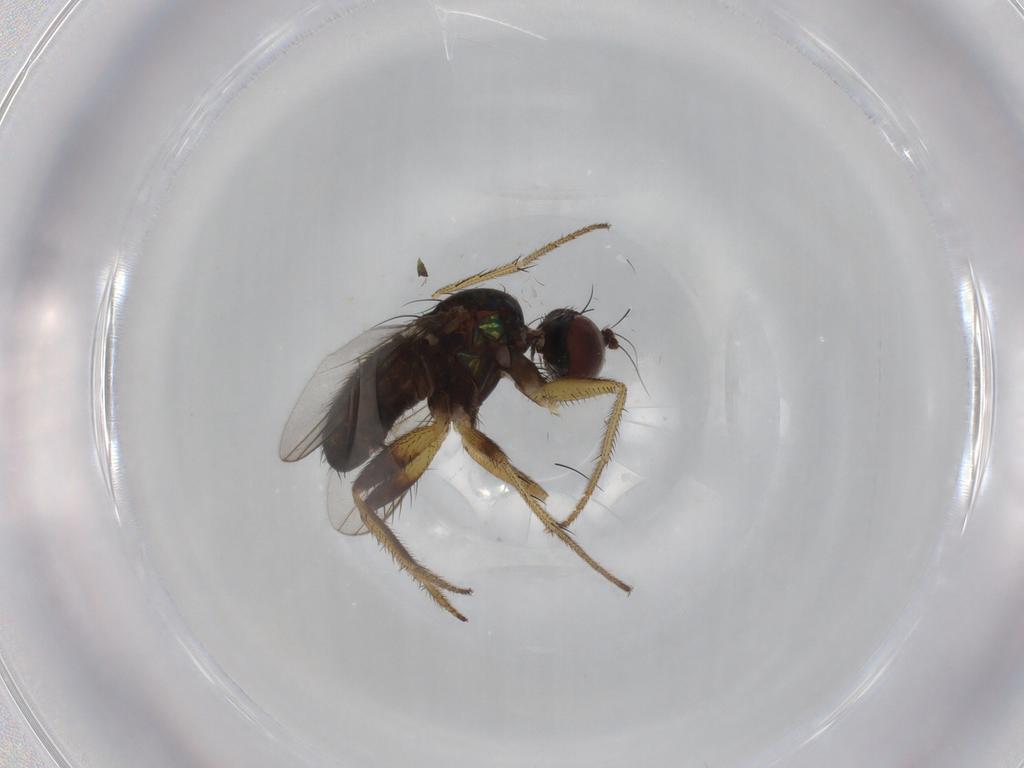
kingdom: Animalia
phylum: Arthropoda
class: Insecta
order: Diptera
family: Dolichopodidae
